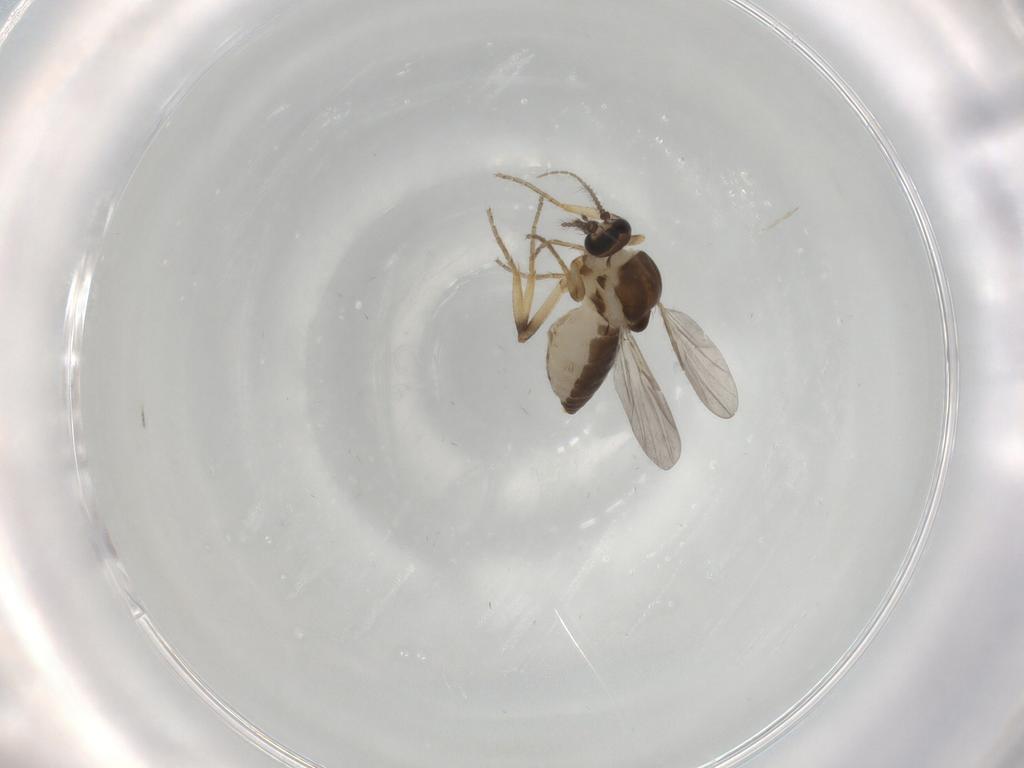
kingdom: Animalia
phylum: Arthropoda
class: Insecta
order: Diptera
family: Ceratopogonidae
